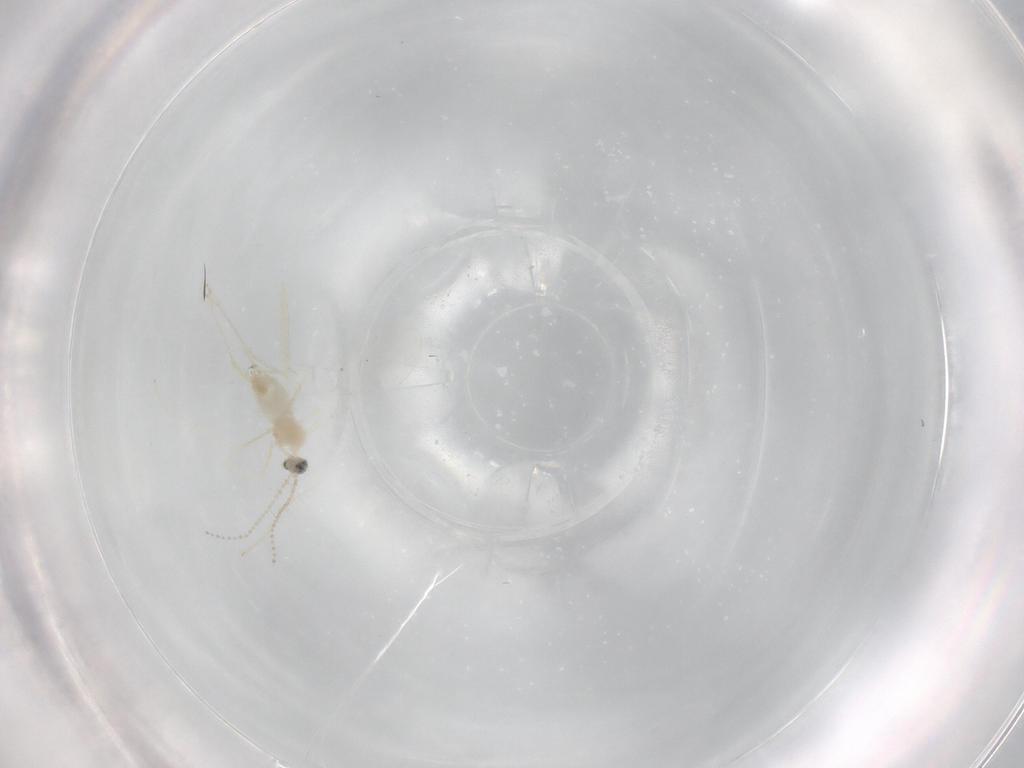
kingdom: Animalia
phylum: Arthropoda
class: Insecta
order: Diptera
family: Cecidomyiidae
